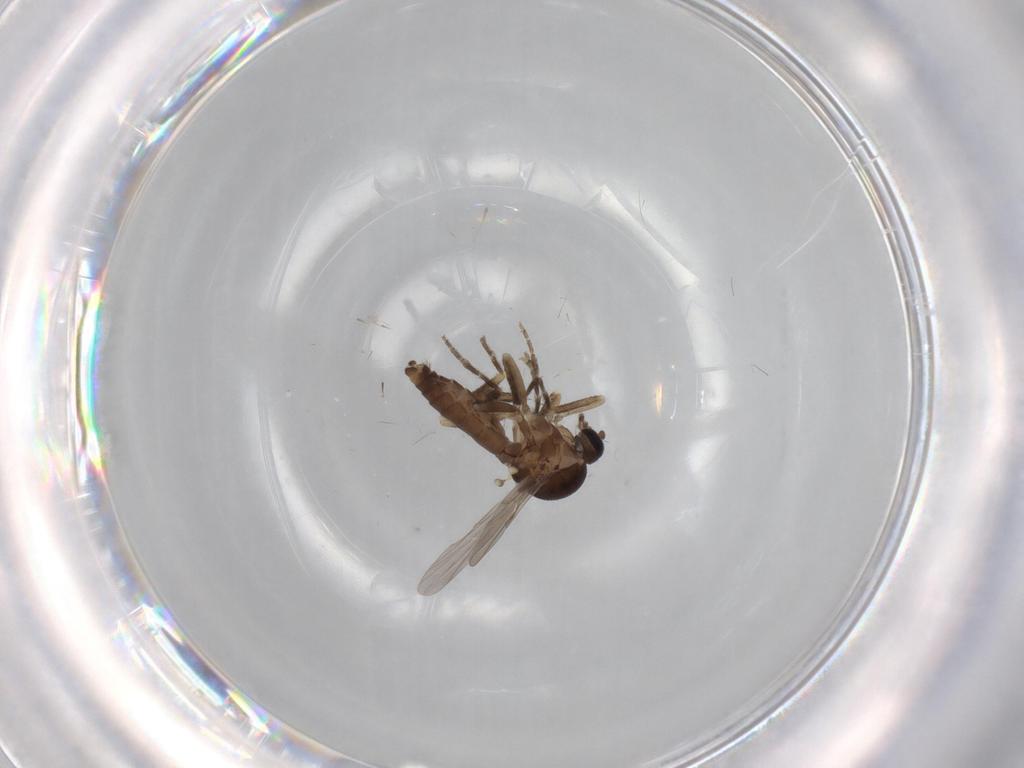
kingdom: Animalia
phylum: Arthropoda
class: Insecta
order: Diptera
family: Ceratopogonidae
